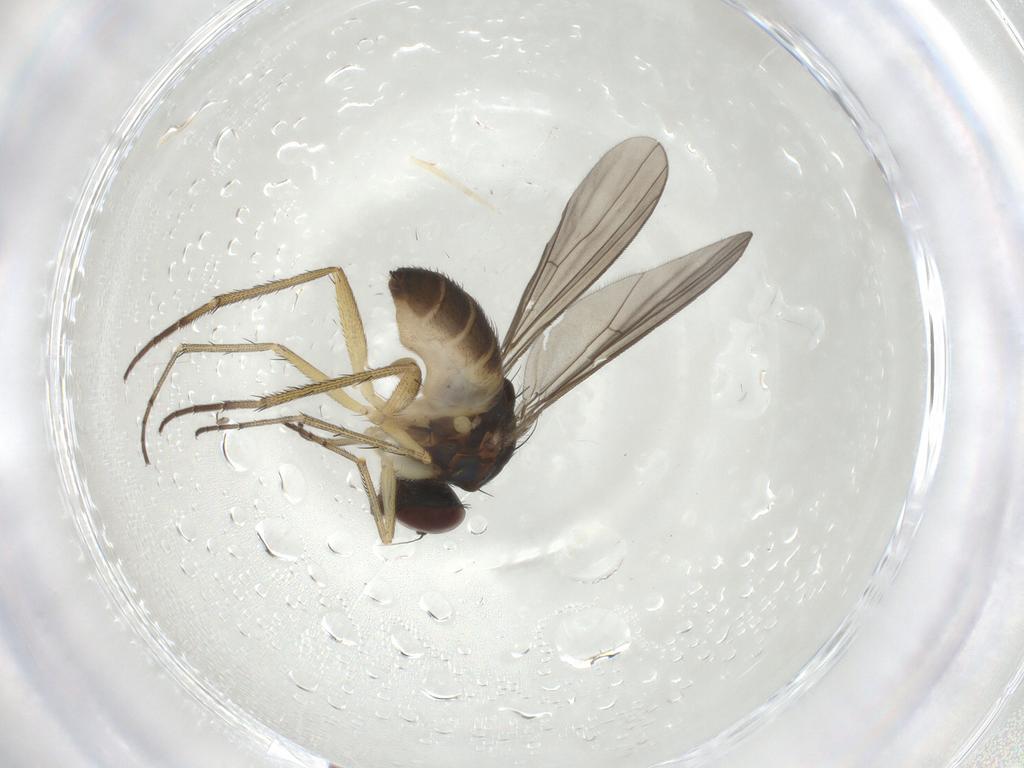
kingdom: Animalia
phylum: Arthropoda
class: Insecta
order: Diptera
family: Dolichopodidae
